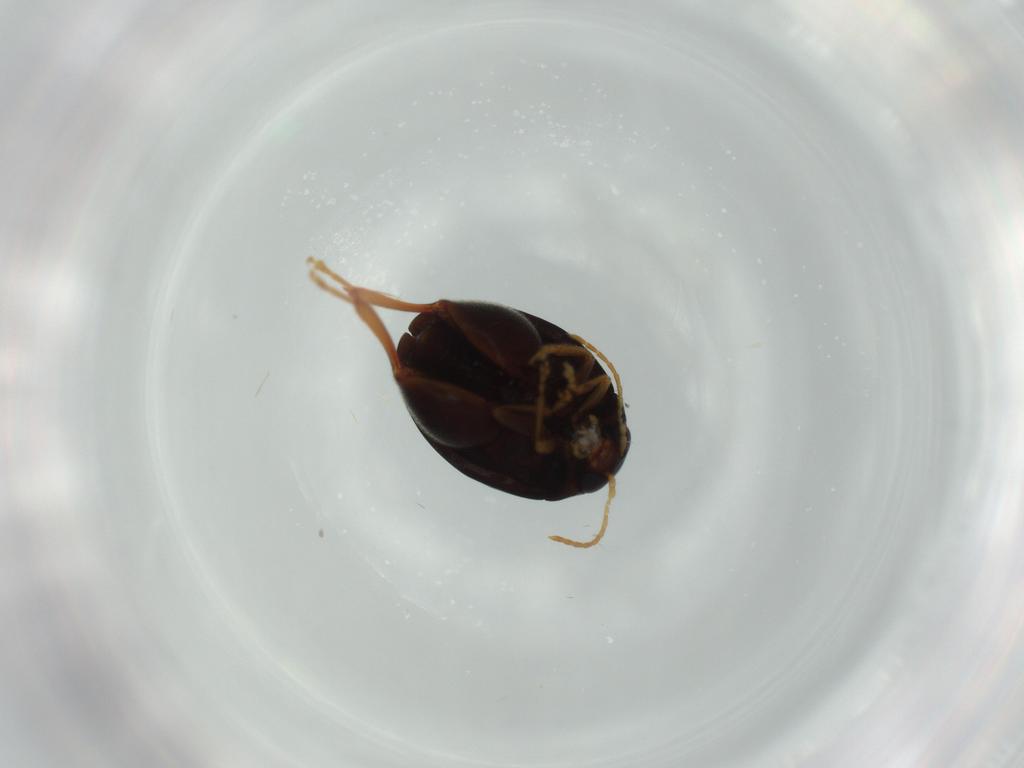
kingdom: Animalia
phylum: Arthropoda
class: Insecta
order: Coleoptera
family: Chrysomelidae
